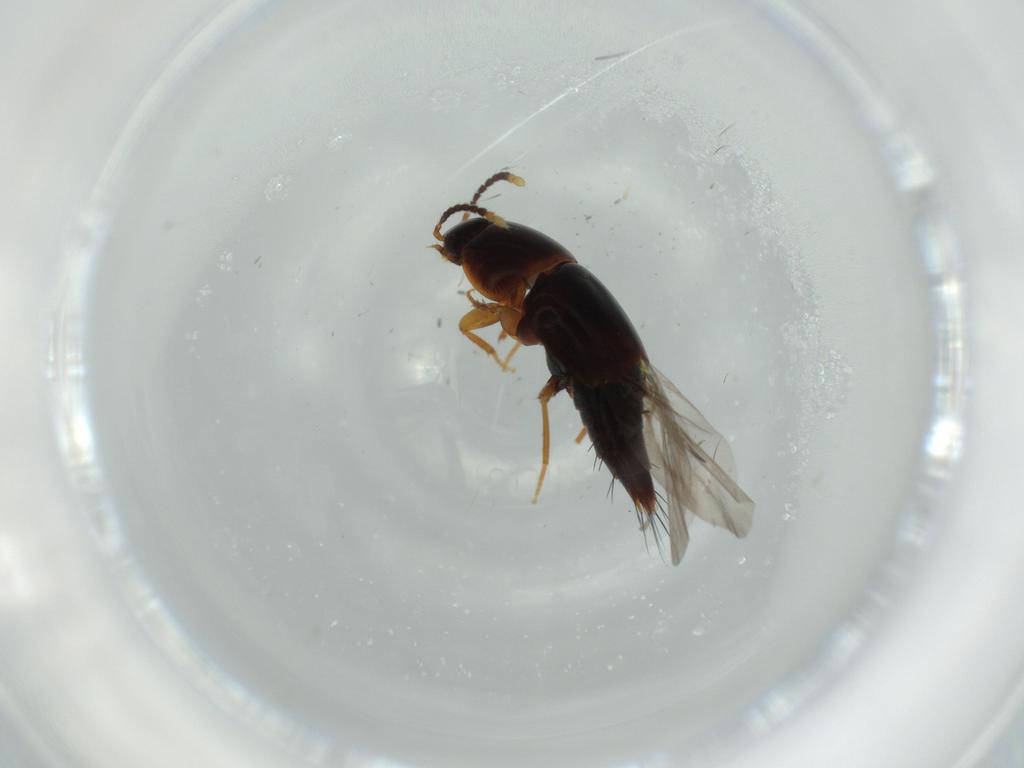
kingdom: Animalia
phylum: Arthropoda
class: Insecta
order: Coleoptera
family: Staphylinidae
